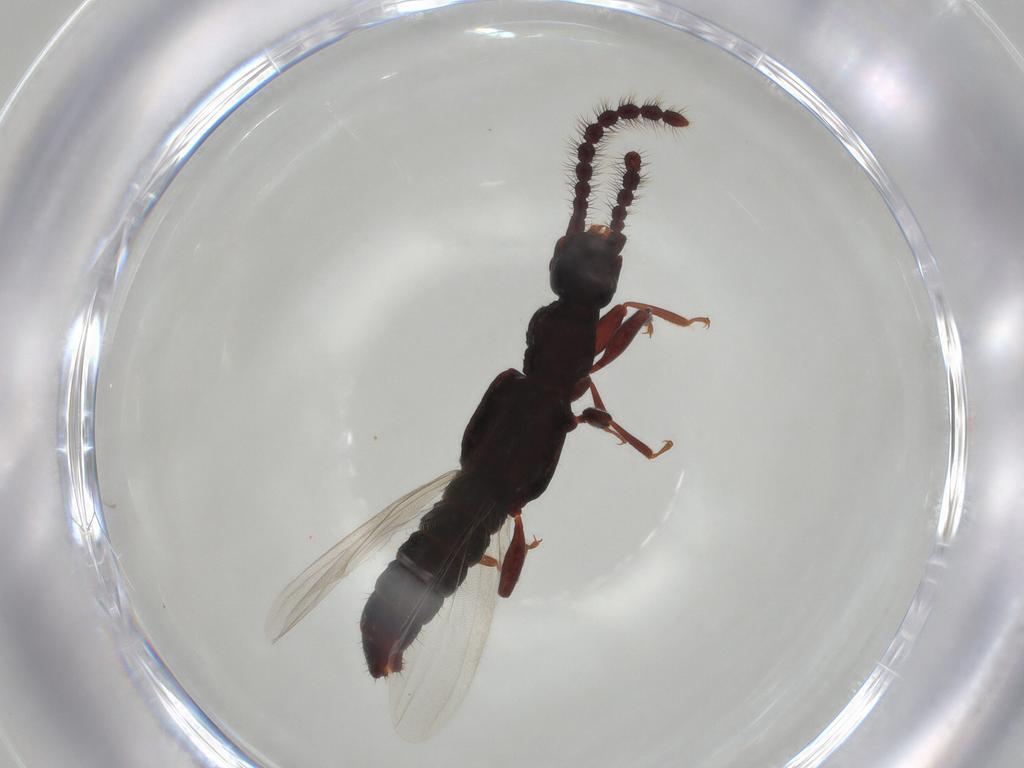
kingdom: Animalia
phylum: Arthropoda
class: Insecta
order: Coleoptera
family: Staphylinidae
